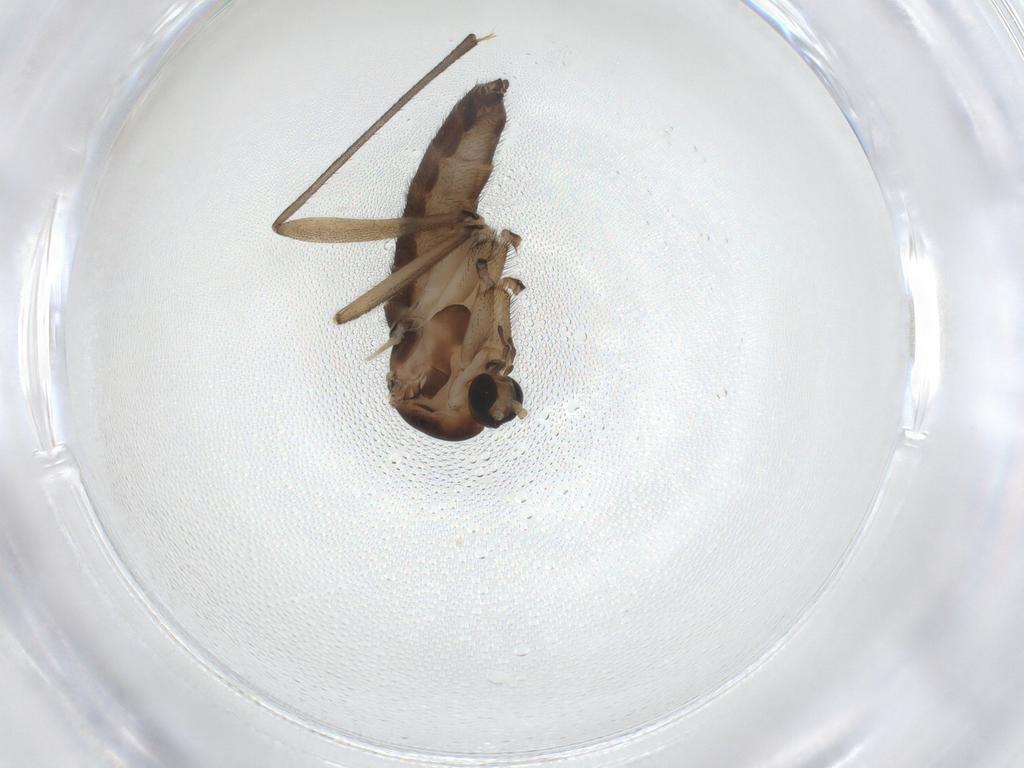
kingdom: Animalia
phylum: Arthropoda
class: Insecta
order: Diptera
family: Sciaridae
